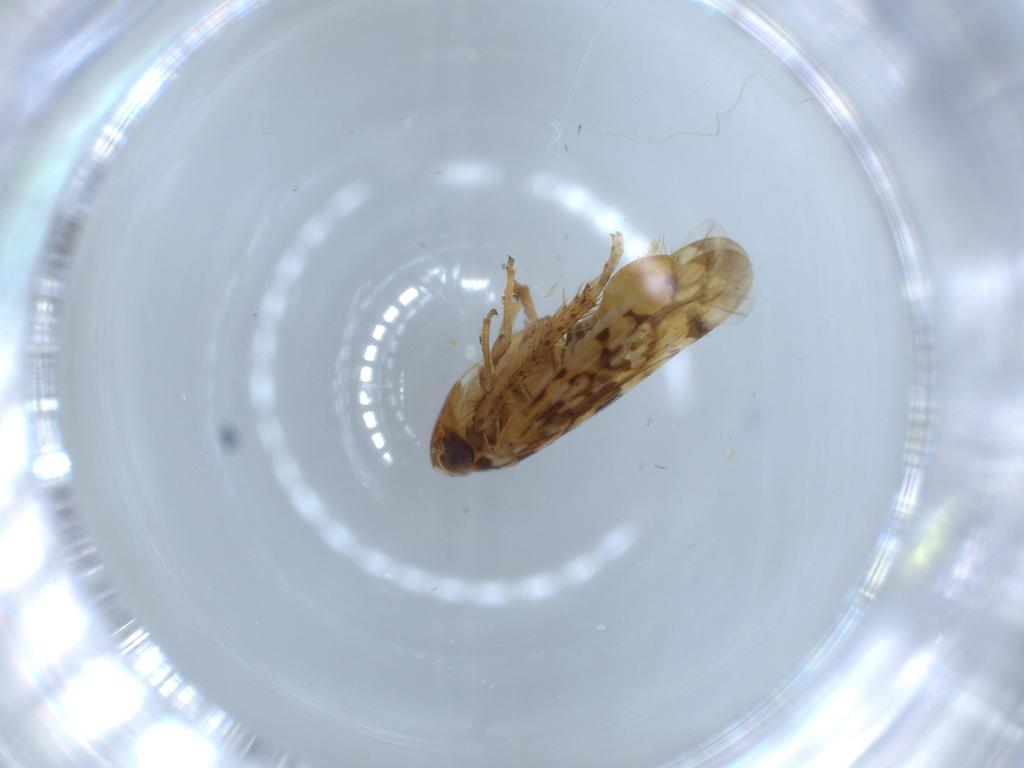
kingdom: Animalia
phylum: Arthropoda
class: Insecta
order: Hemiptera
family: Cicadellidae
